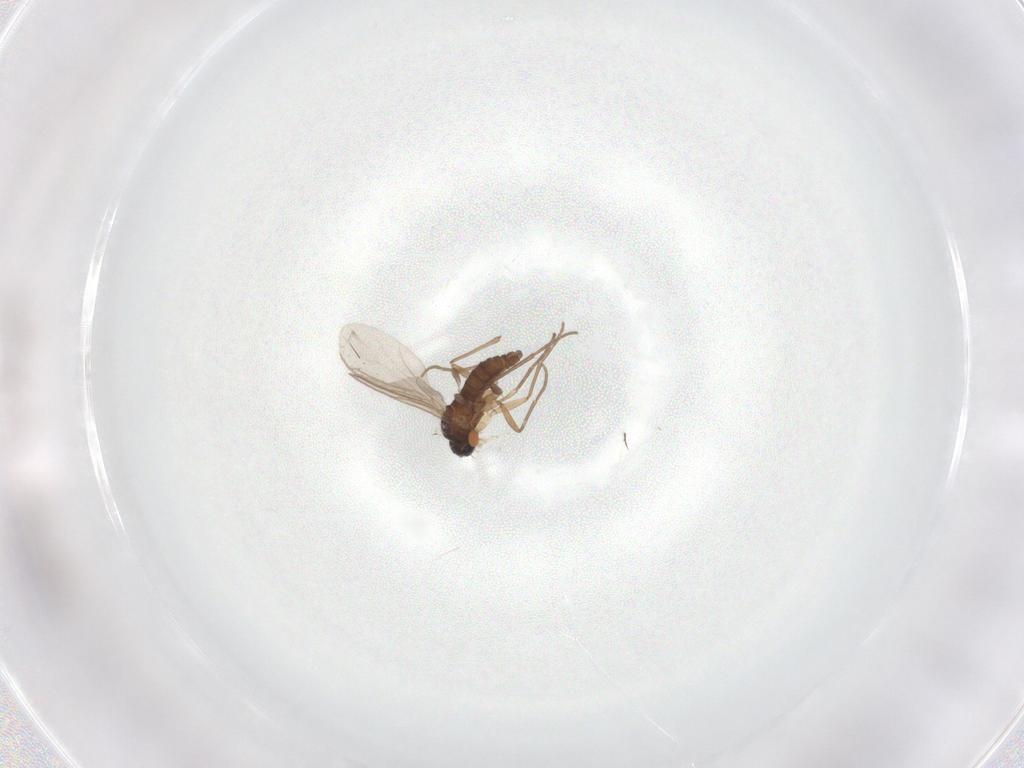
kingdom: Animalia
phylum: Arthropoda
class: Insecta
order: Diptera
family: Sciaridae
